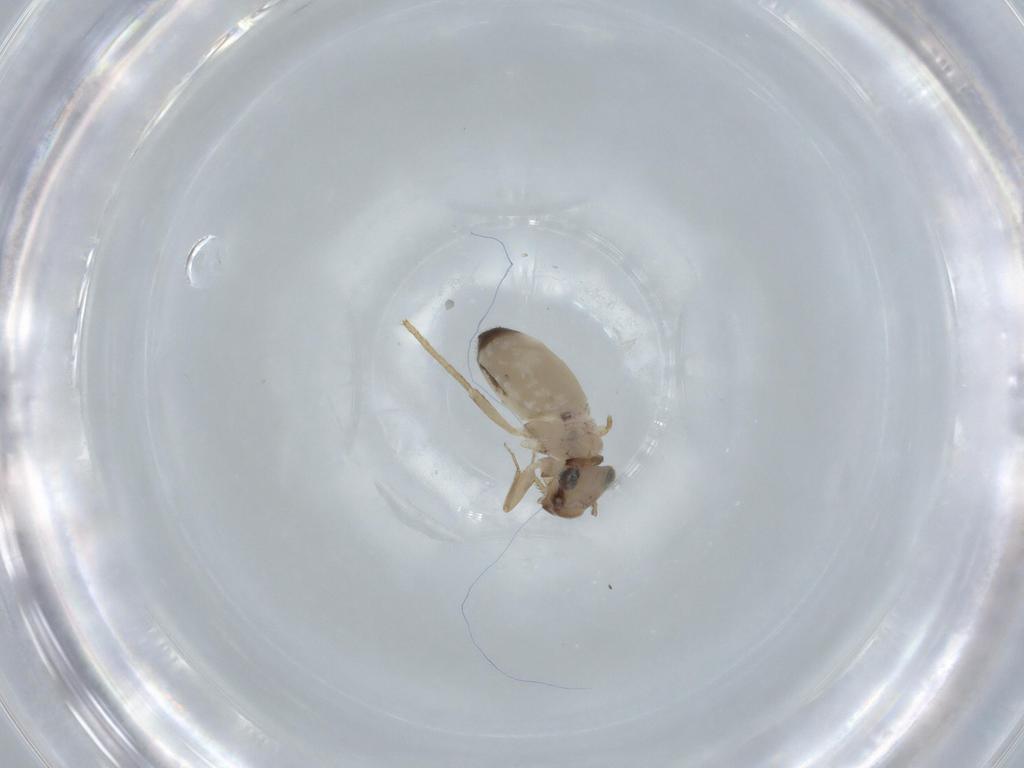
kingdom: Animalia
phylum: Arthropoda
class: Insecta
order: Psocodea
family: Lepidopsocidae
